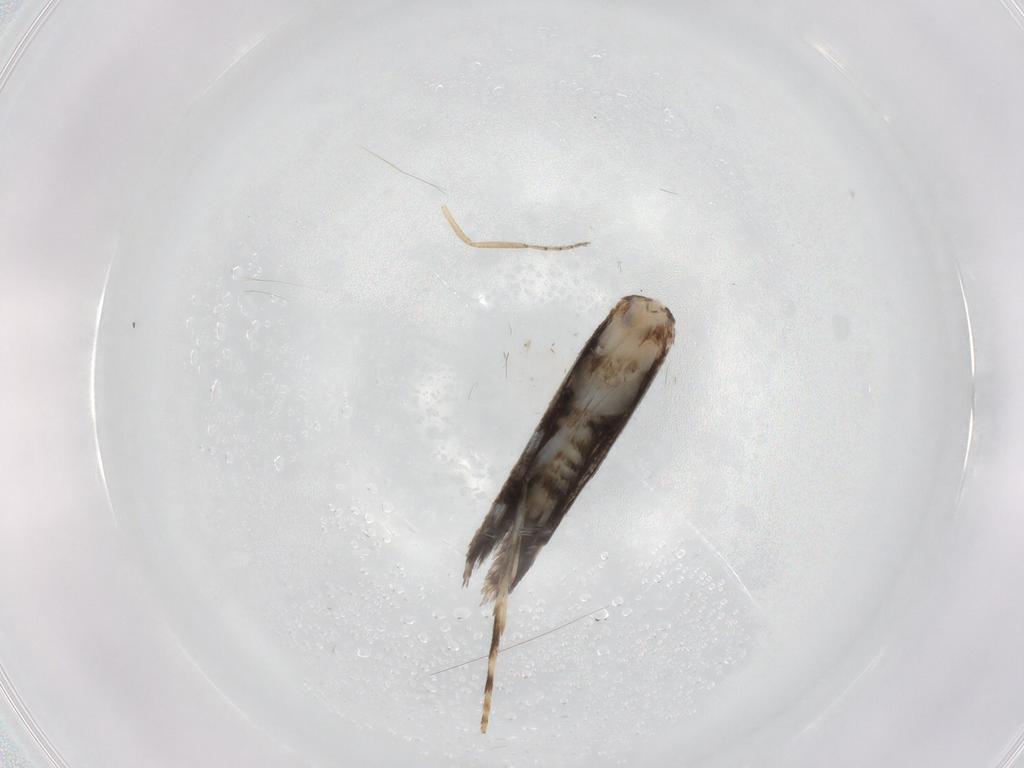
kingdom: Animalia
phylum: Arthropoda
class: Insecta
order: Lepidoptera
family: Gracillariidae
